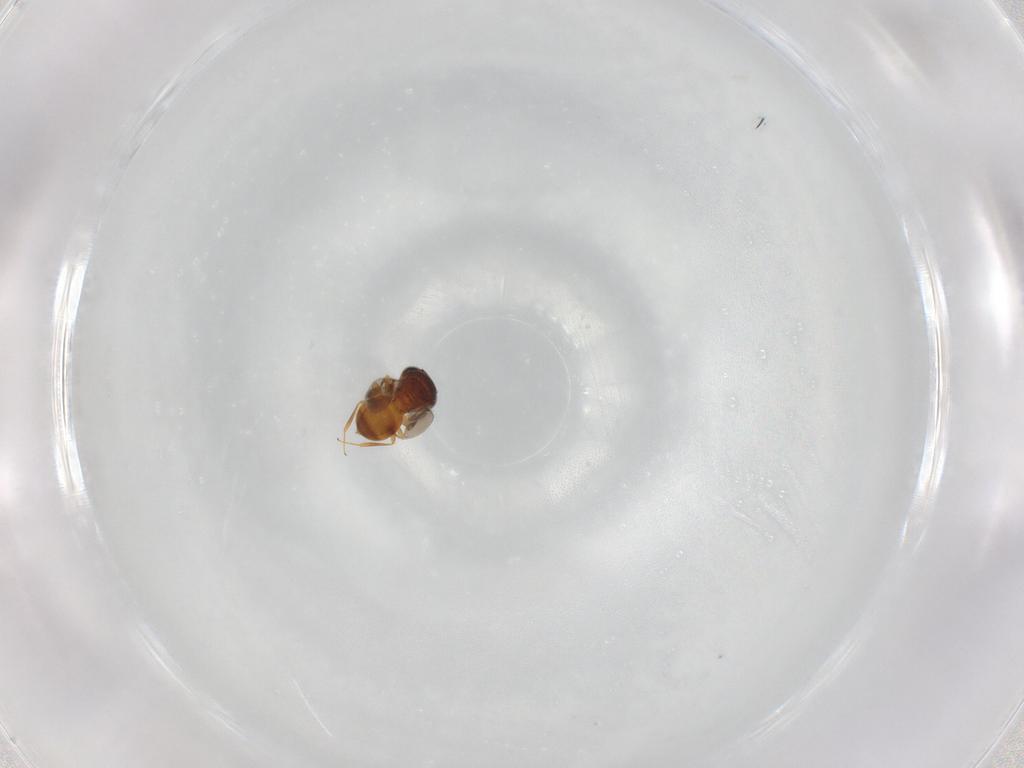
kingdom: Animalia
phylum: Arthropoda
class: Insecta
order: Hymenoptera
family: Scelionidae
